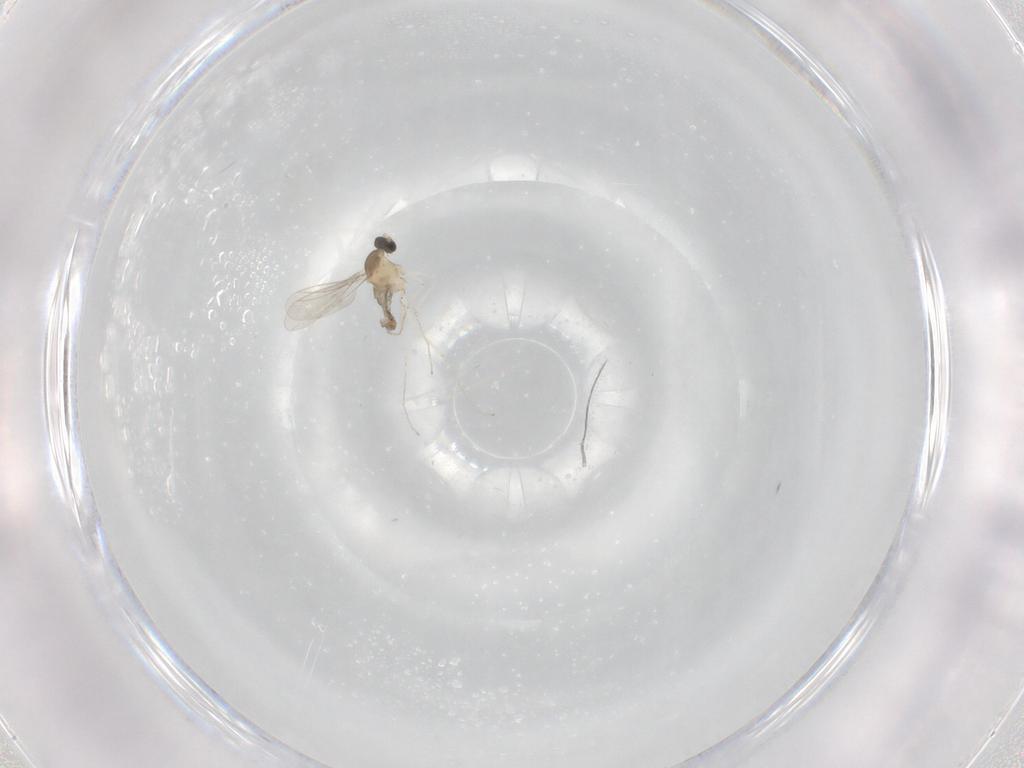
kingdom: Animalia
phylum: Arthropoda
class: Insecta
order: Diptera
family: Cecidomyiidae
